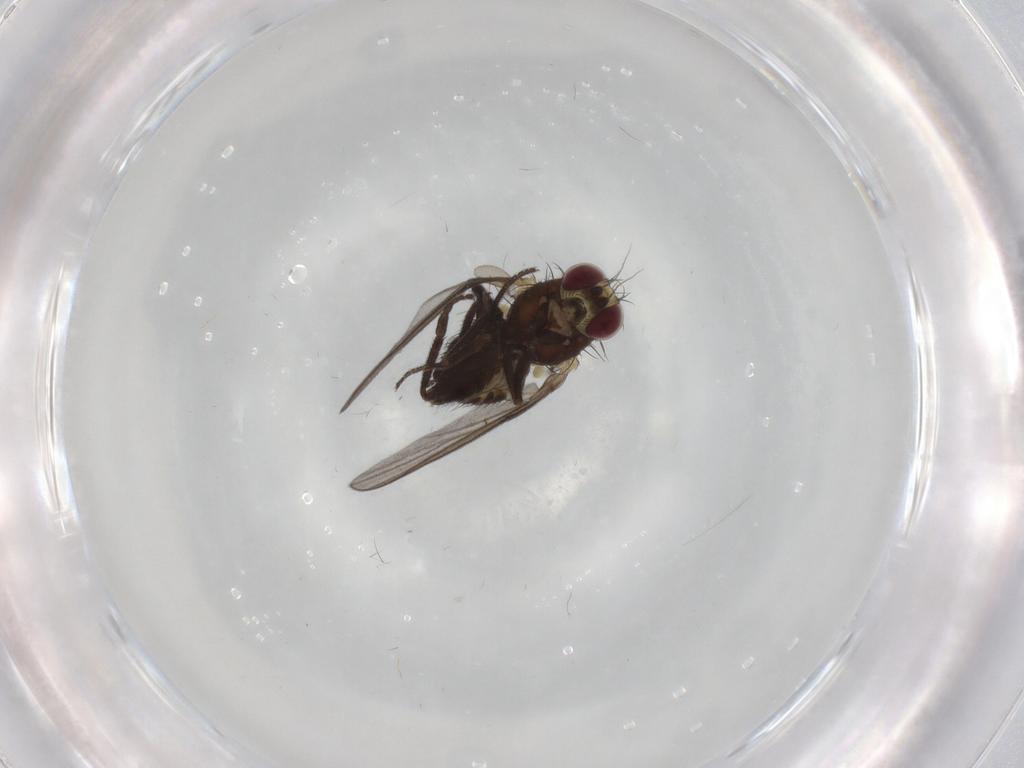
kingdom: Animalia
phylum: Arthropoda
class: Insecta
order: Diptera
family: Agromyzidae
